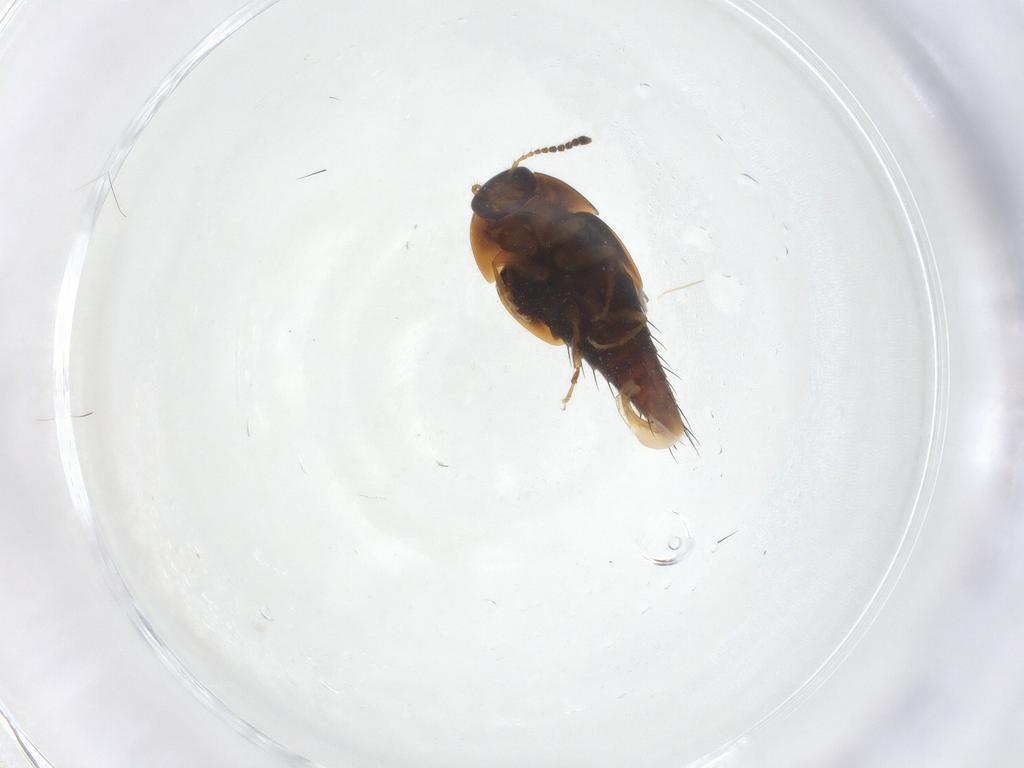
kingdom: Animalia
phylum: Arthropoda
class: Insecta
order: Coleoptera
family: Staphylinidae
